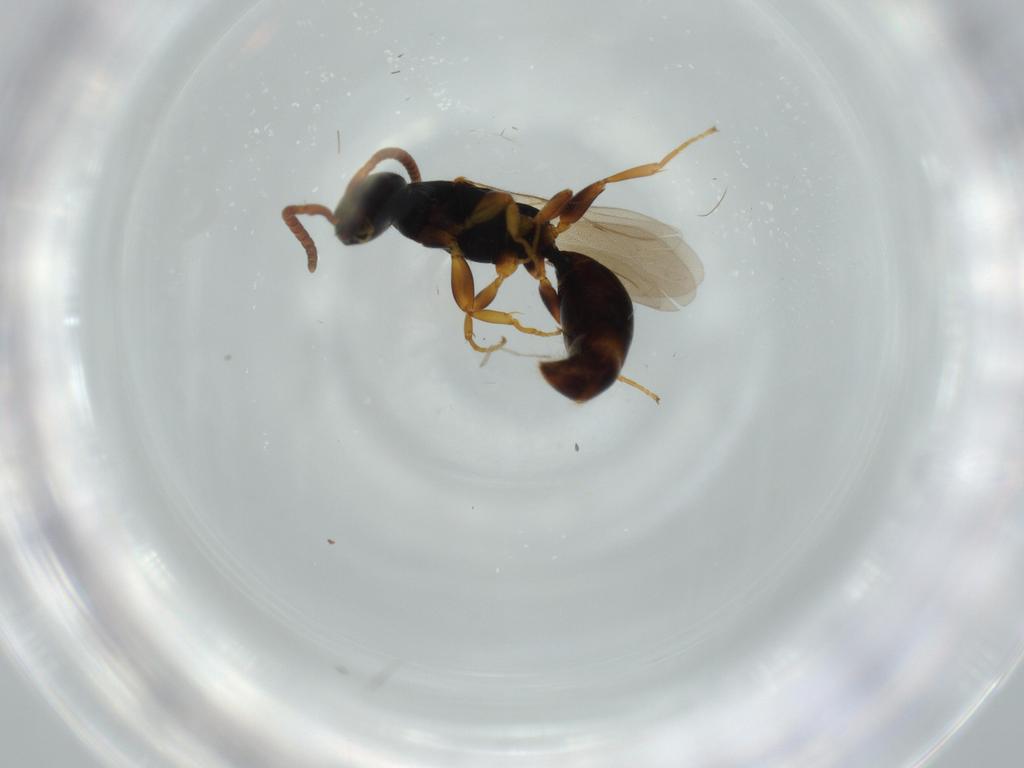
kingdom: Animalia
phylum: Arthropoda
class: Insecta
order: Hymenoptera
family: Bethylidae
